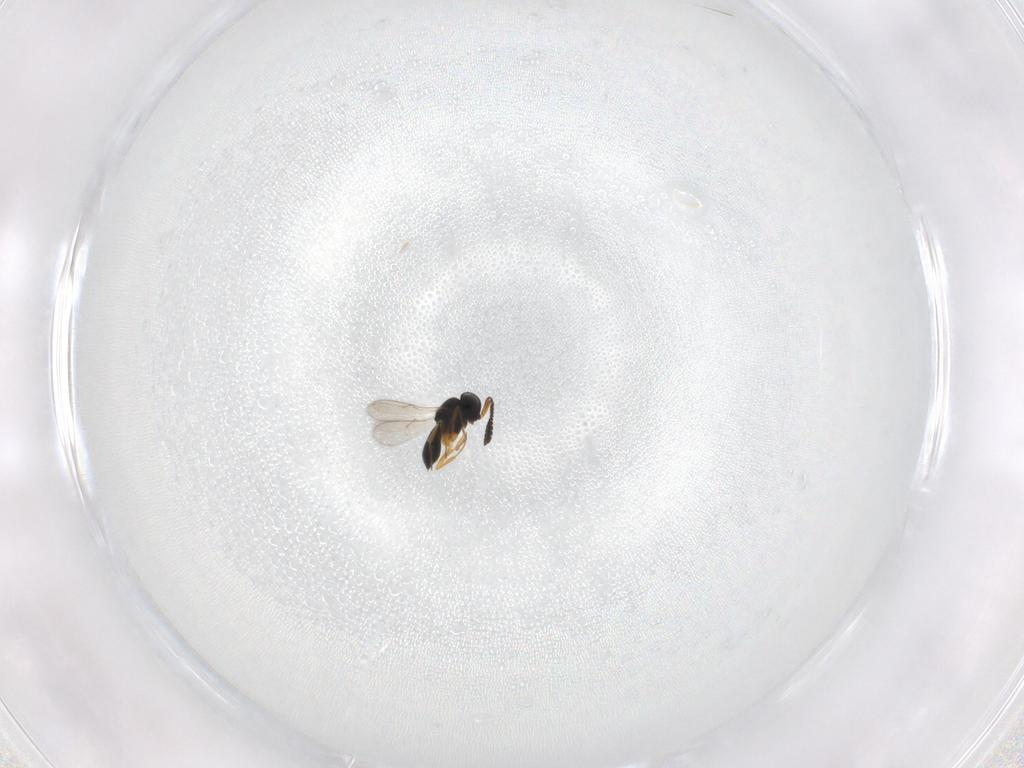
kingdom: Animalia
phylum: Arthropoda
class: Insecta
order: Hymenoptera
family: Scelionidae
